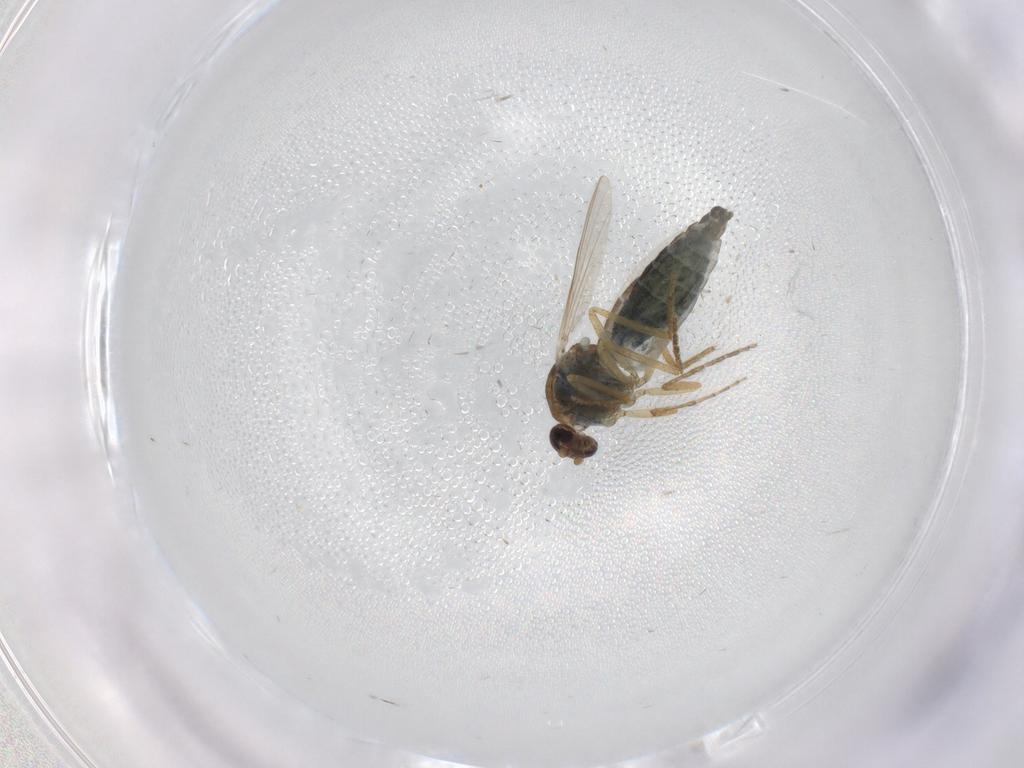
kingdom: Animalia
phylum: Arthropoda
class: Insecta
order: Diptera
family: Ceratopogonidae
